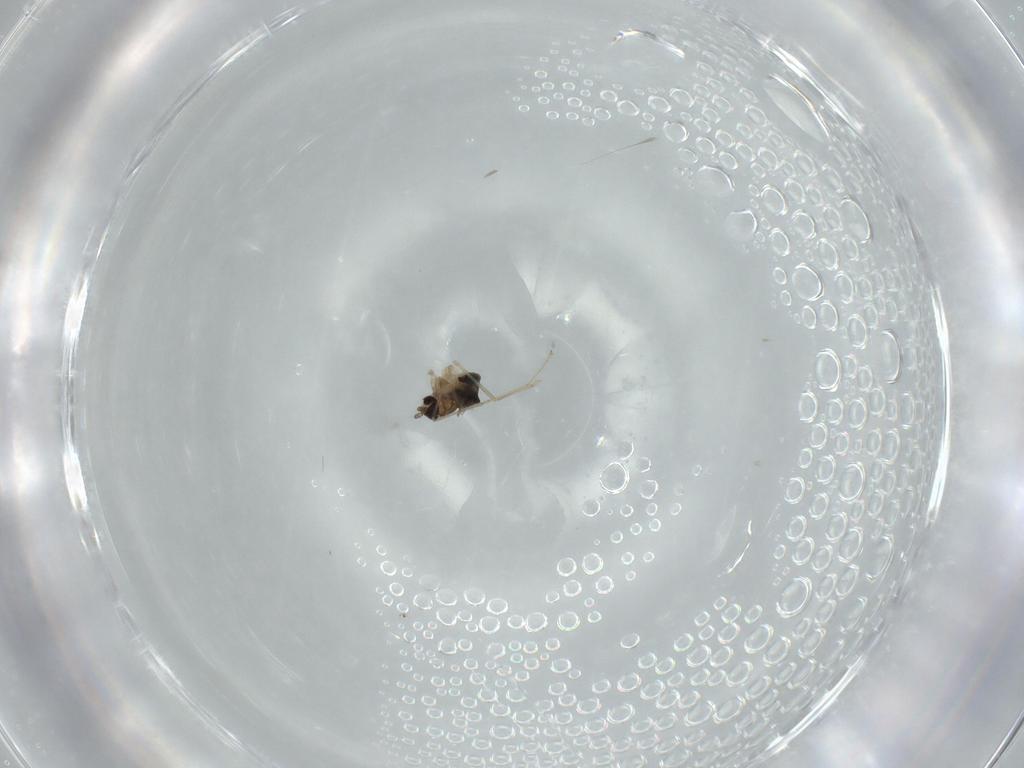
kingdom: Animalia
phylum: Arthropoda
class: Insecta
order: Diptera
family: Cecidomyiidae
